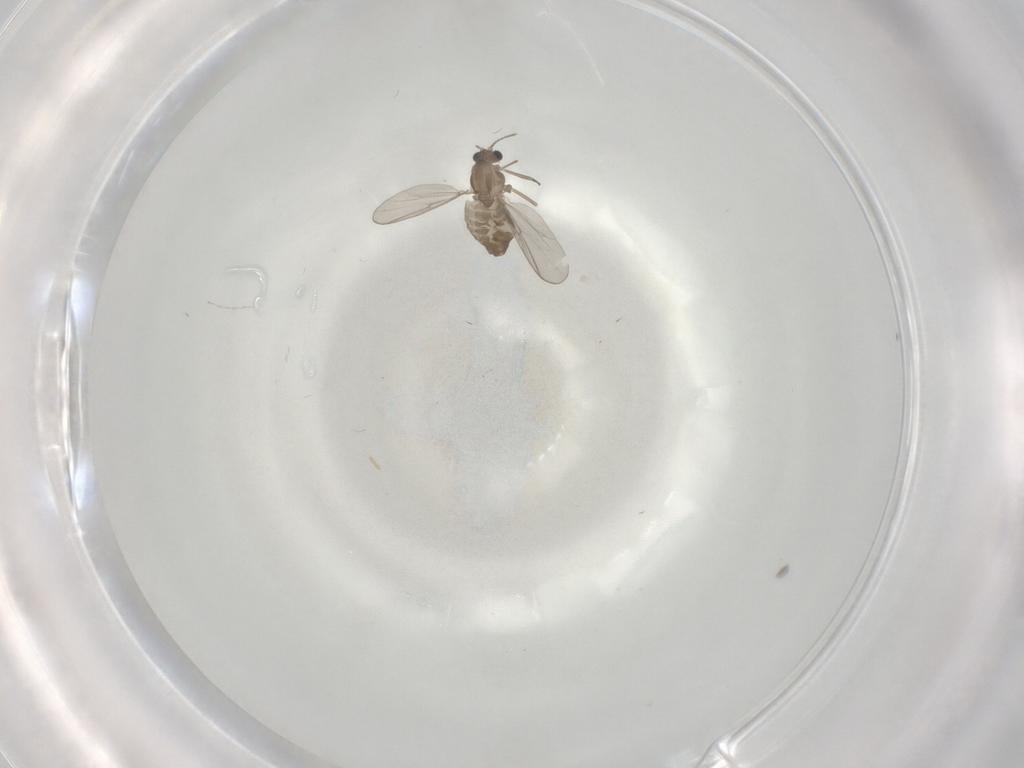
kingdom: Animalia
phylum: Arthropoda
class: Insecta
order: Diptera
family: Chironomidae
